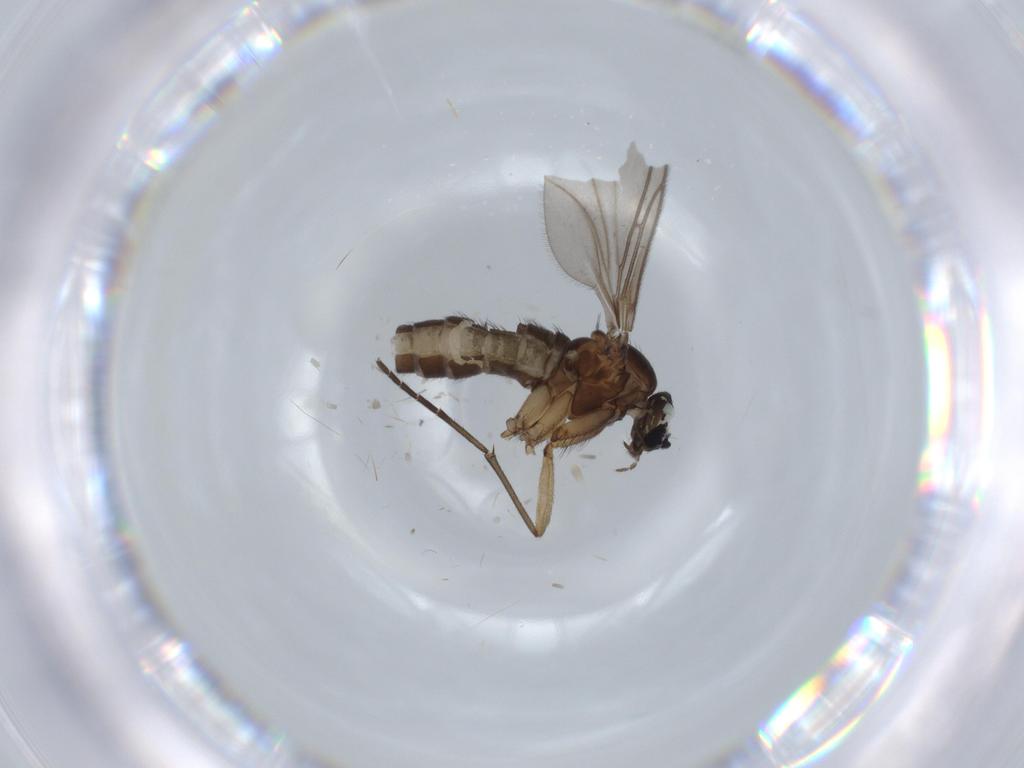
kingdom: Animalia
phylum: Arthropoda
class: Insecta
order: Diptera
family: Sciaridae
